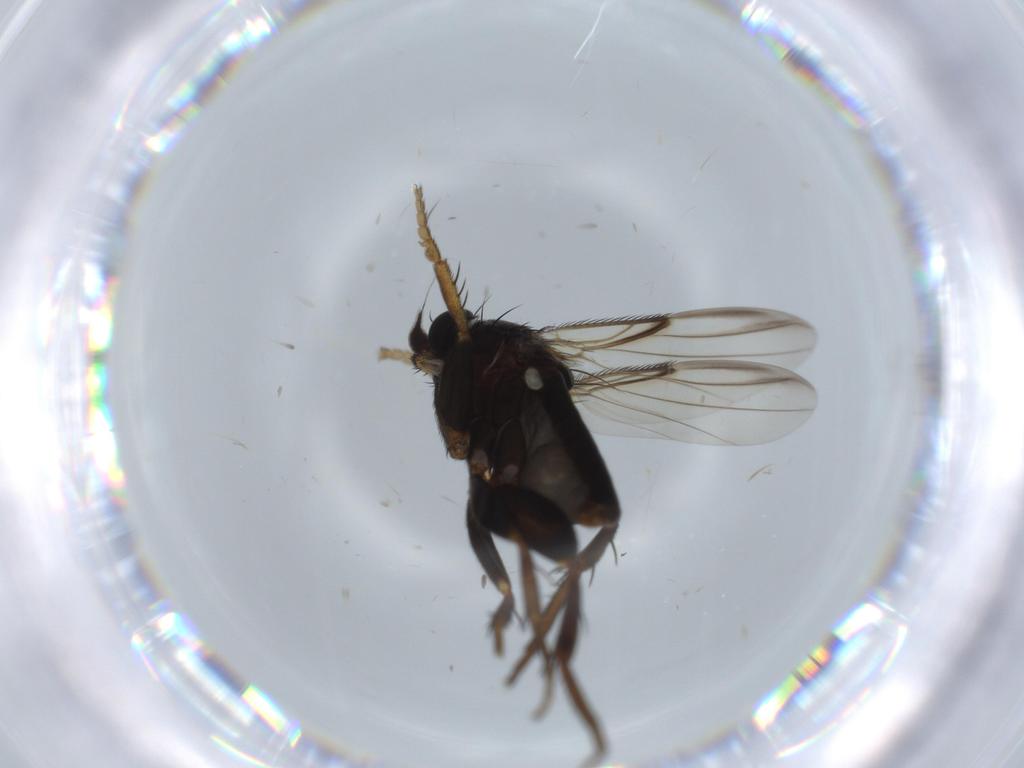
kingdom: Animalia
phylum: Arthropoda
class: Insecta
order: Diptera
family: Phoridae
